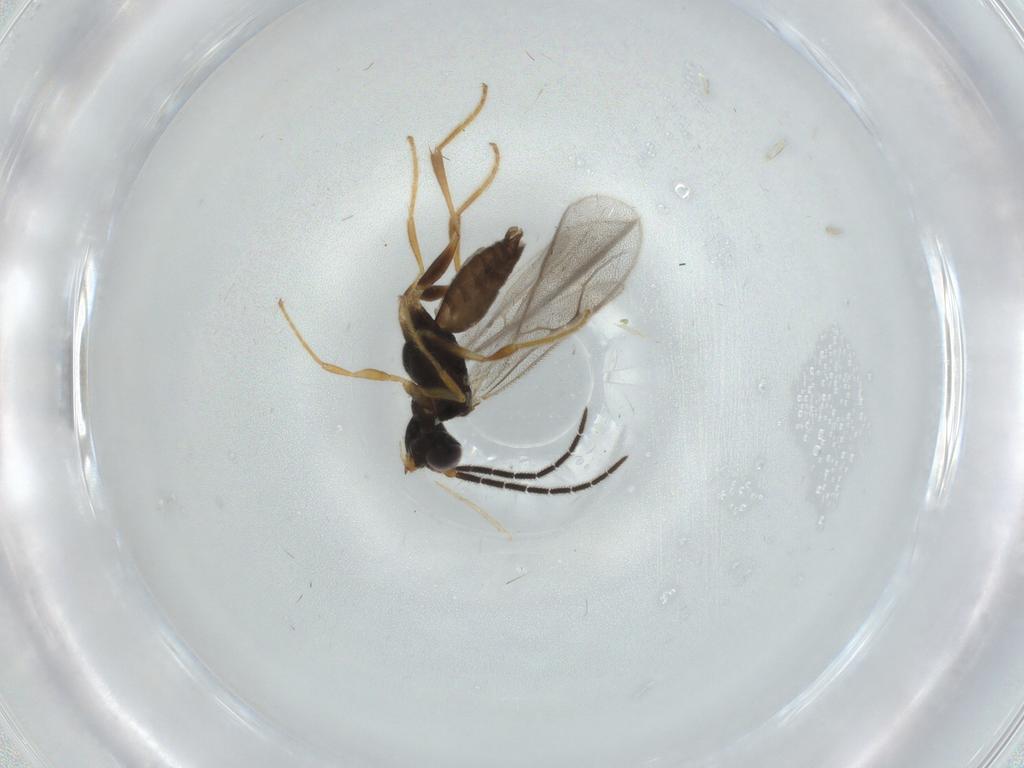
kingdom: Animalia
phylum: Arthropoda
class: Insecta
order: Hymenoptera
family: Dryinidae
